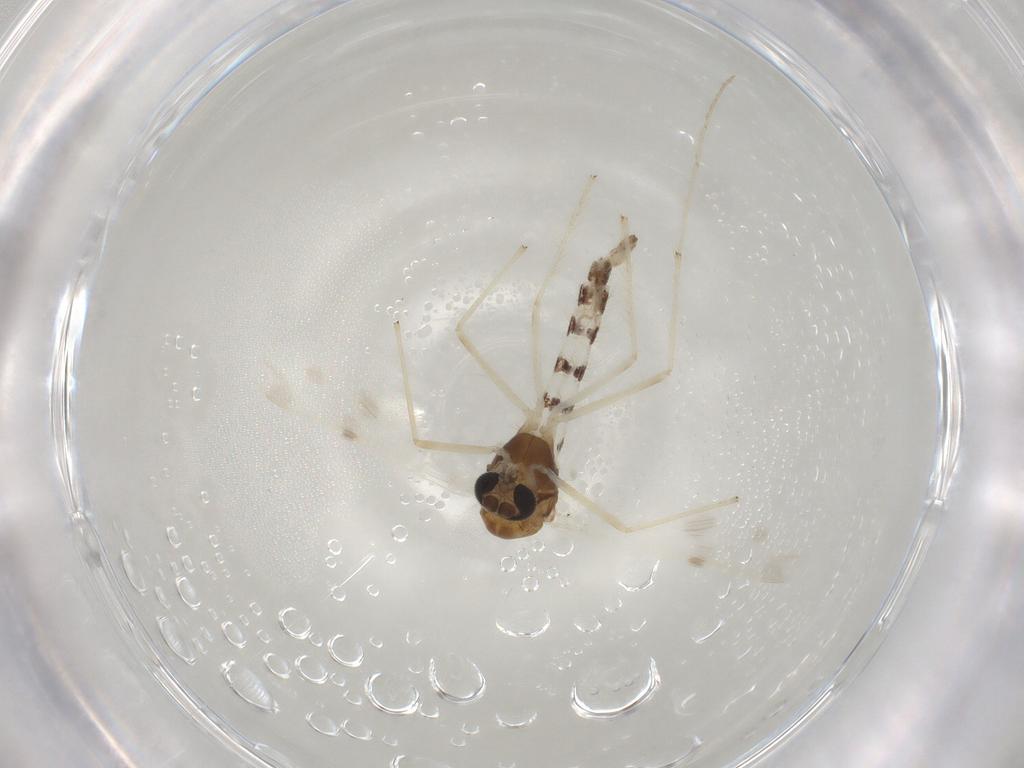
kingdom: Animalia
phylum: Arthropoda
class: Insecta
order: Diptera
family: Chironomidae
